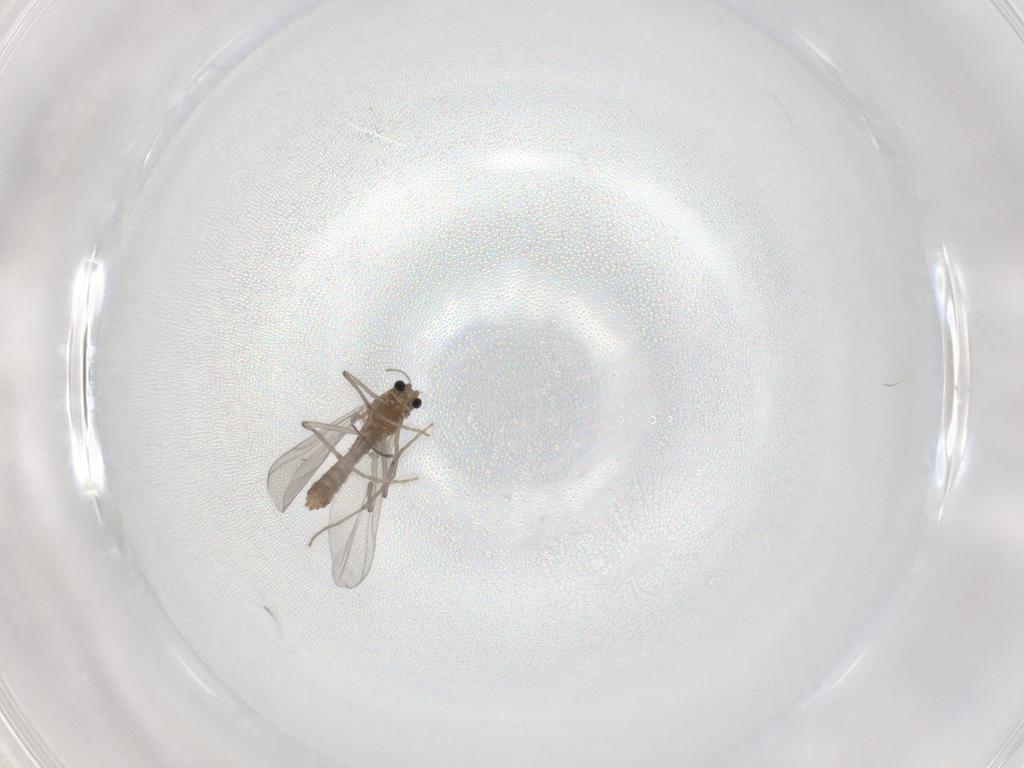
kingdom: Animalia
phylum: Arthropoda
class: Insecta
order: Diptera
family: Chironomidae
